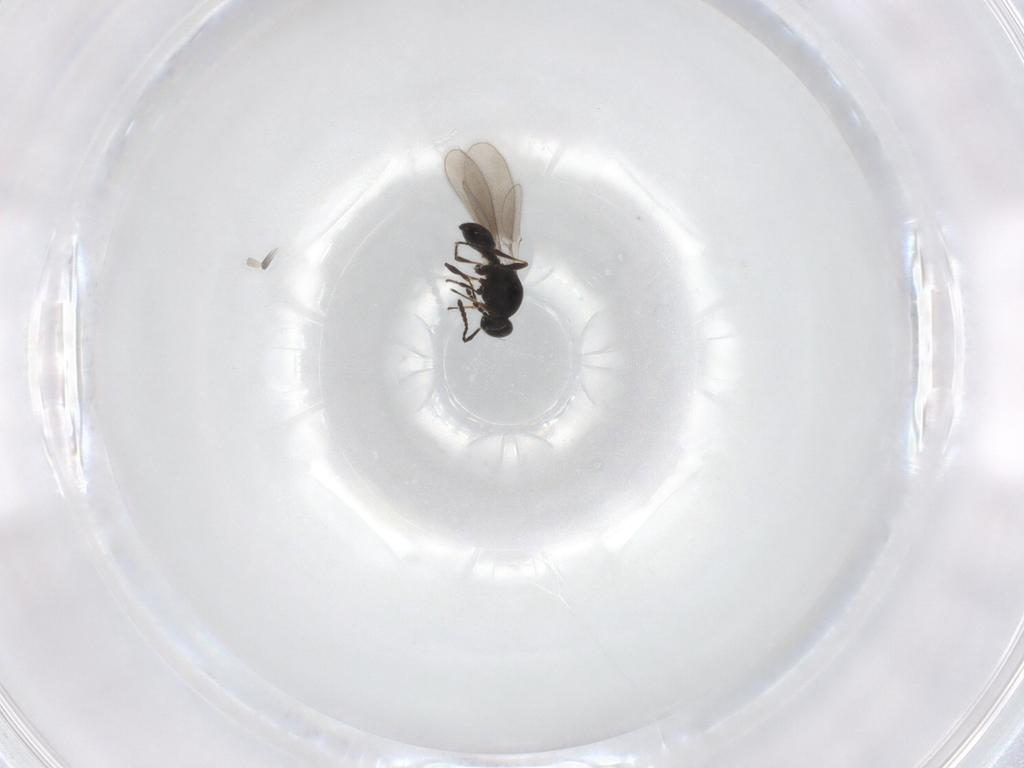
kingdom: Animalia
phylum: Arthropoda
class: Insecta
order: Hymenoptera
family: Platygastridae
